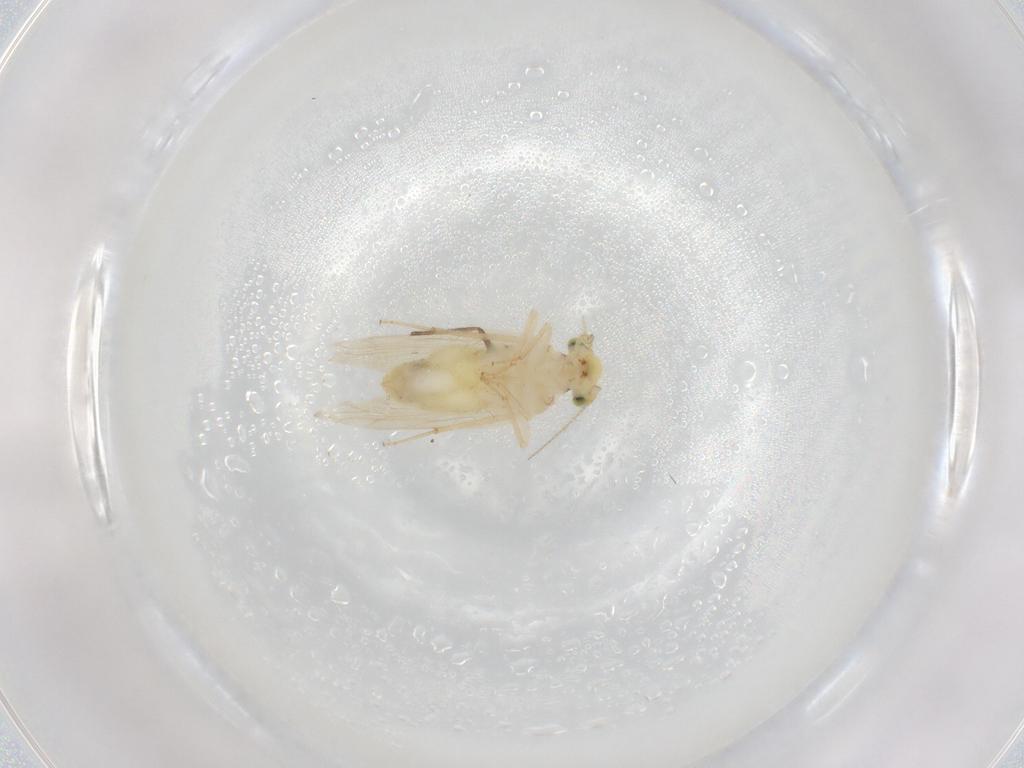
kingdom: Animalia
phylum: Arthropoda
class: Insecta
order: Psocodea
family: Lepidopsocidae
